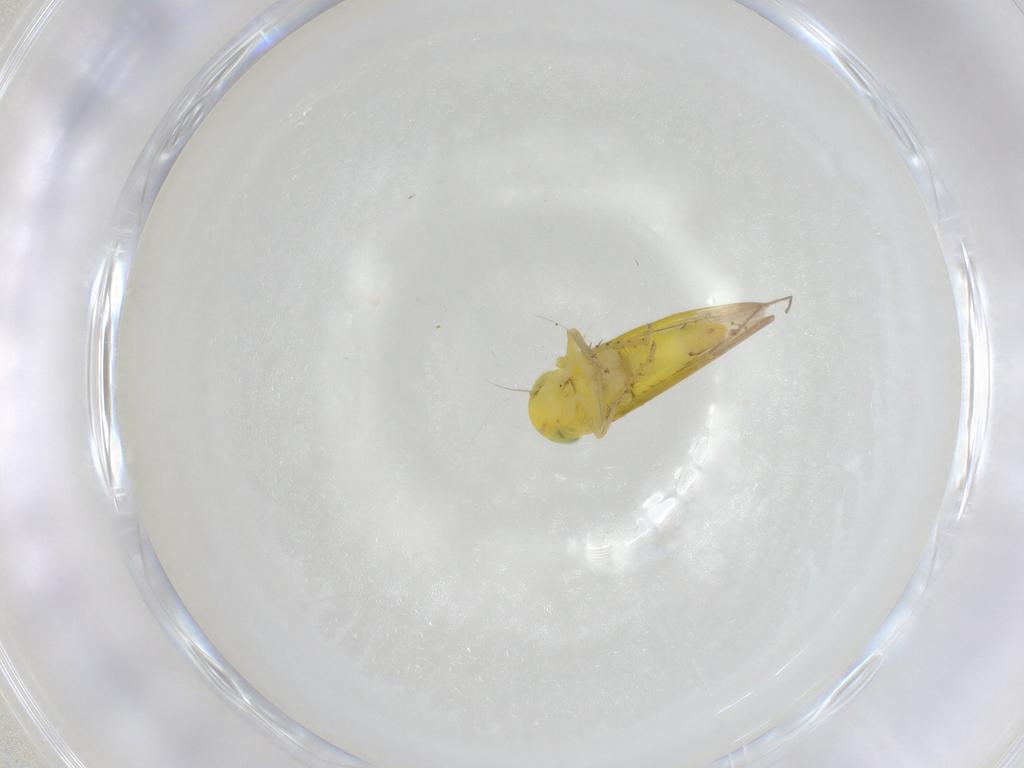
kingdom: Animalia
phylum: Arthropoda
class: Insecta
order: Hemiptera
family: Cicadellidae
